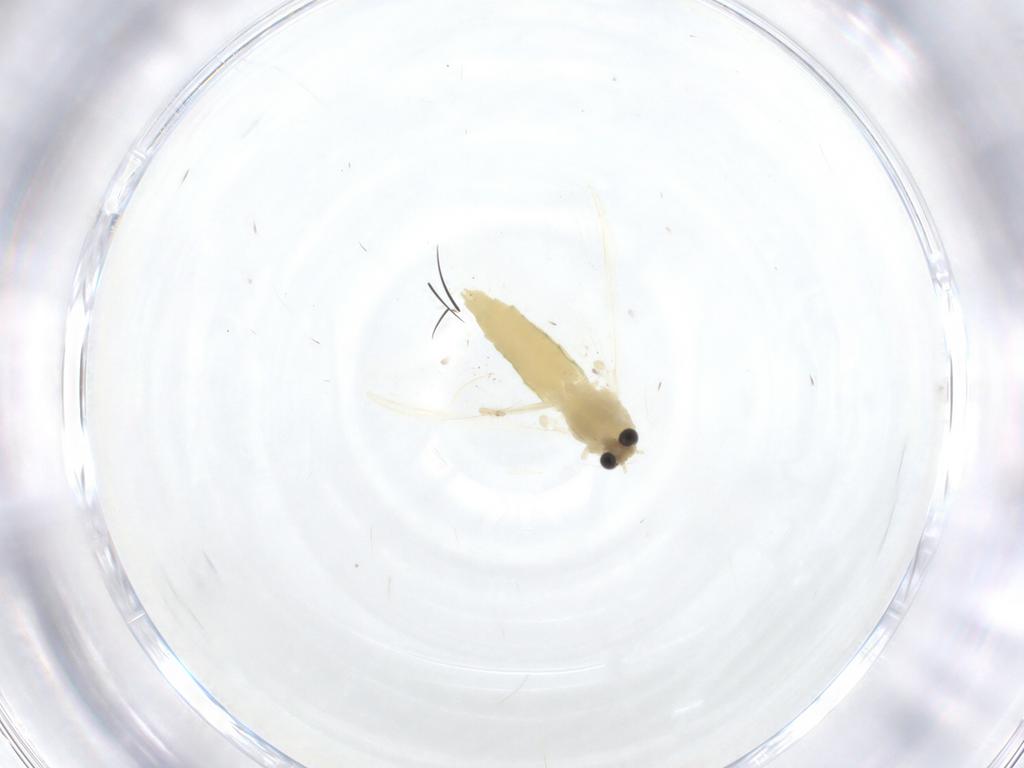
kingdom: Animalia
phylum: Arthropoda
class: Insecta
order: Diptera
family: Chironomidae
